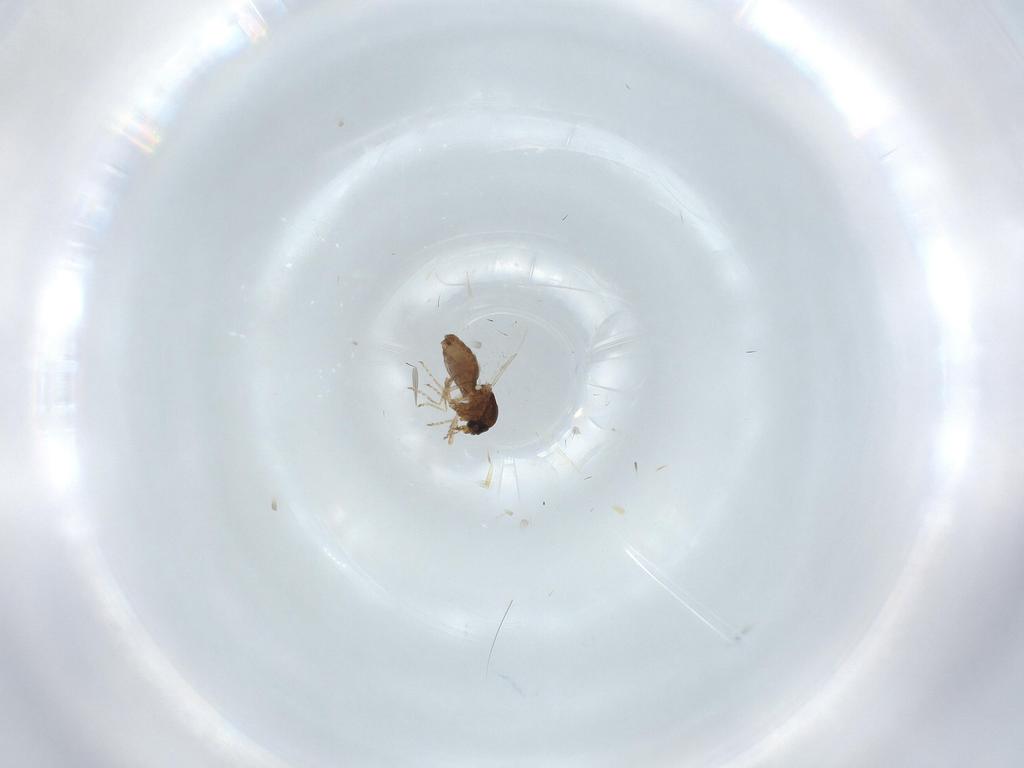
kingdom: Animalia
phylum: Arthropoda
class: Insecta
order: Diptera
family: Ceratopogonidae
